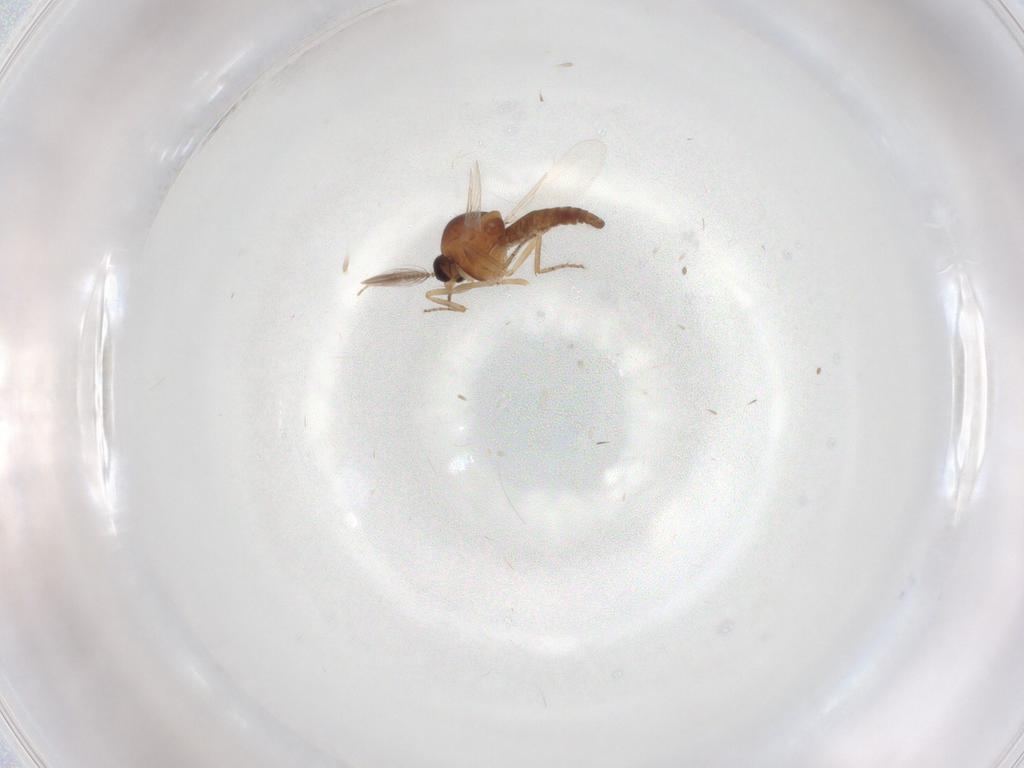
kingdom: Animalia
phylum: Arthropoda
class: Insecta
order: Diptera
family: Ceratopogonidae
